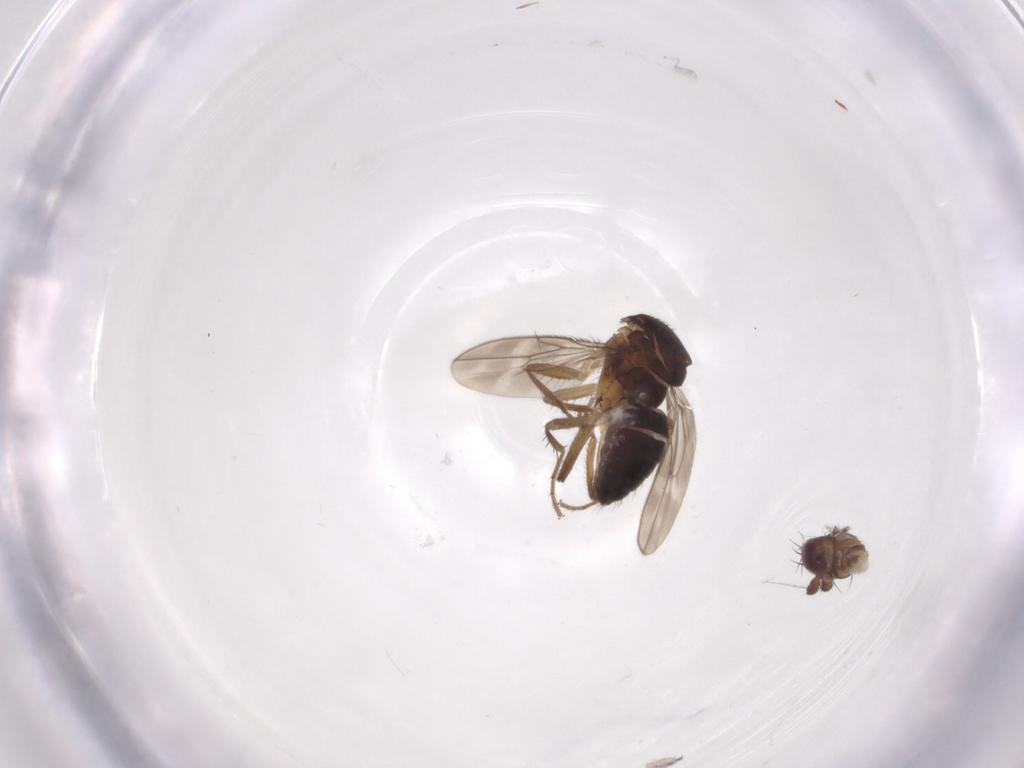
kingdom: Animalia
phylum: Arthropoda
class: Insecta
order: Diptera
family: Sphaeroceridae
